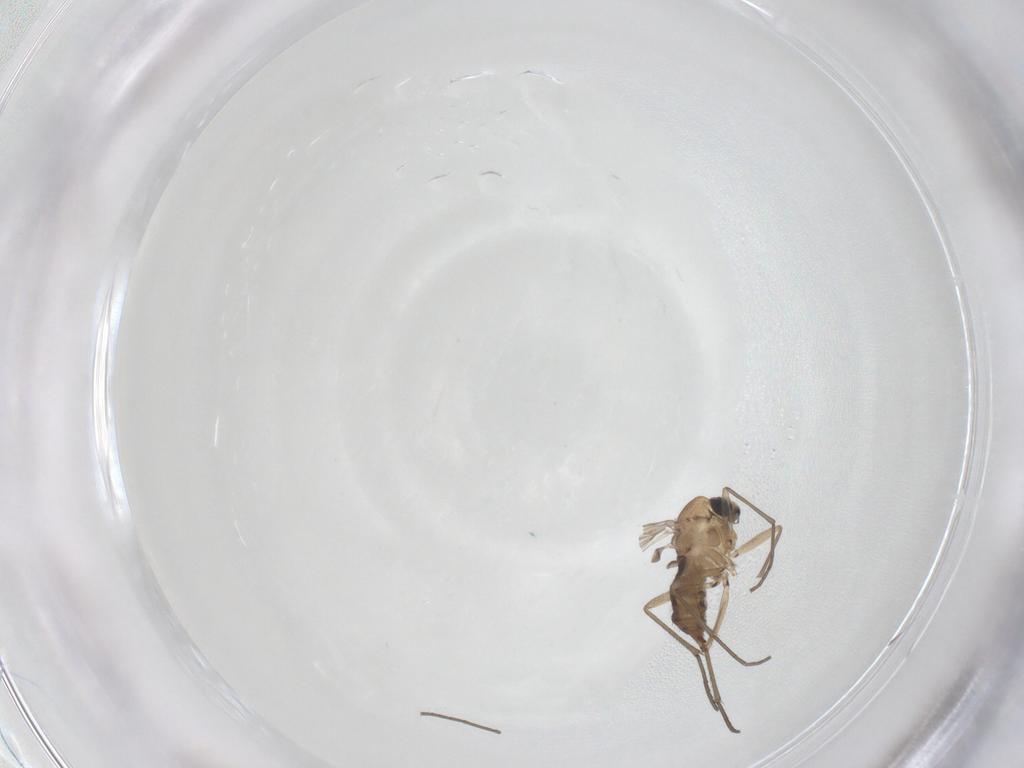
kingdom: Animalia
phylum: Arthropoda
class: Insecta
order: Diptera
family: Sciaridae
